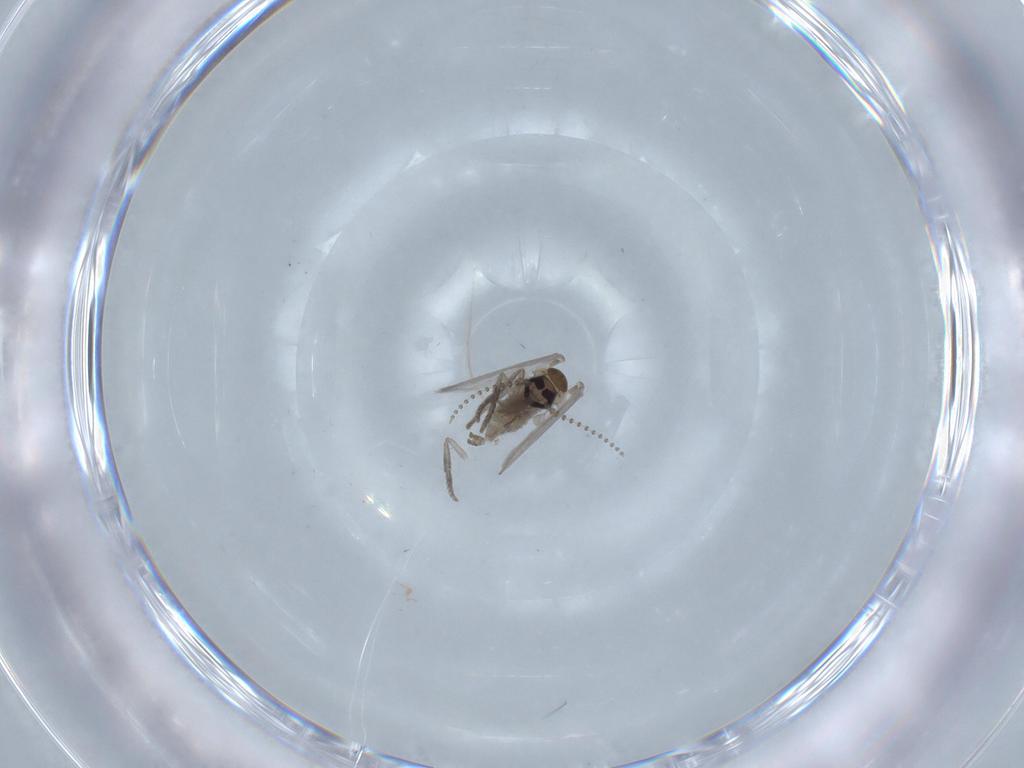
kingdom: Animalia
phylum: Arthropoda
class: Insecta
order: Diptera
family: Psychodidae
